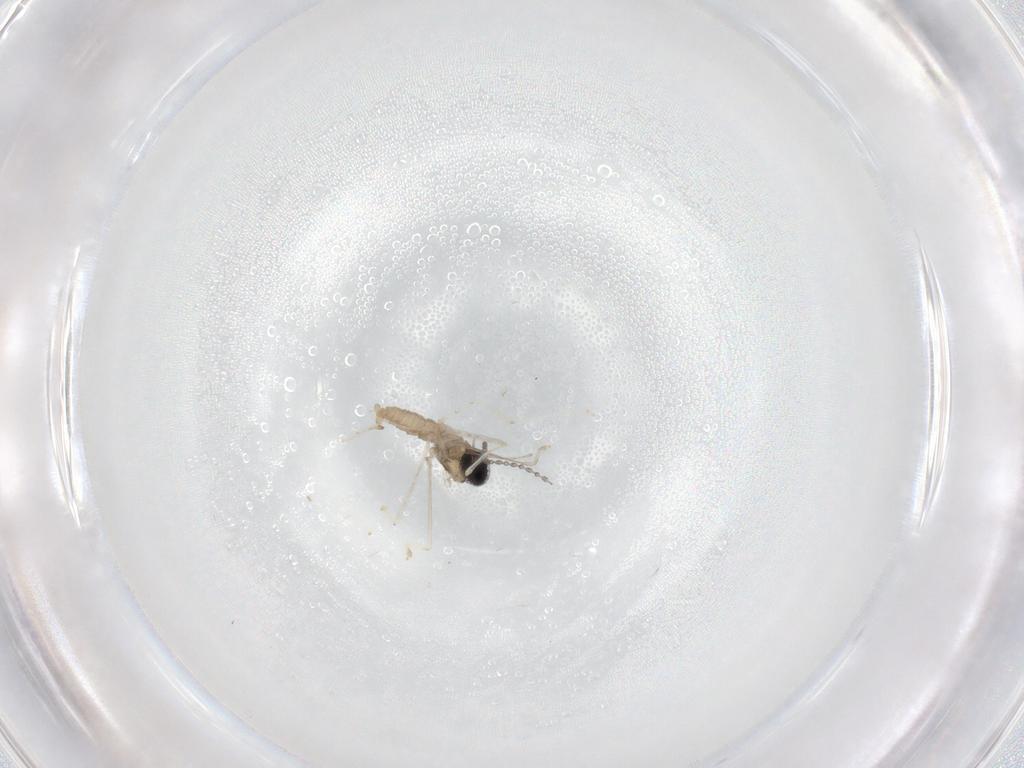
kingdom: Animalia
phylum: Arthropoda
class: Insecta
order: Diptera
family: Cecidomyiidae
